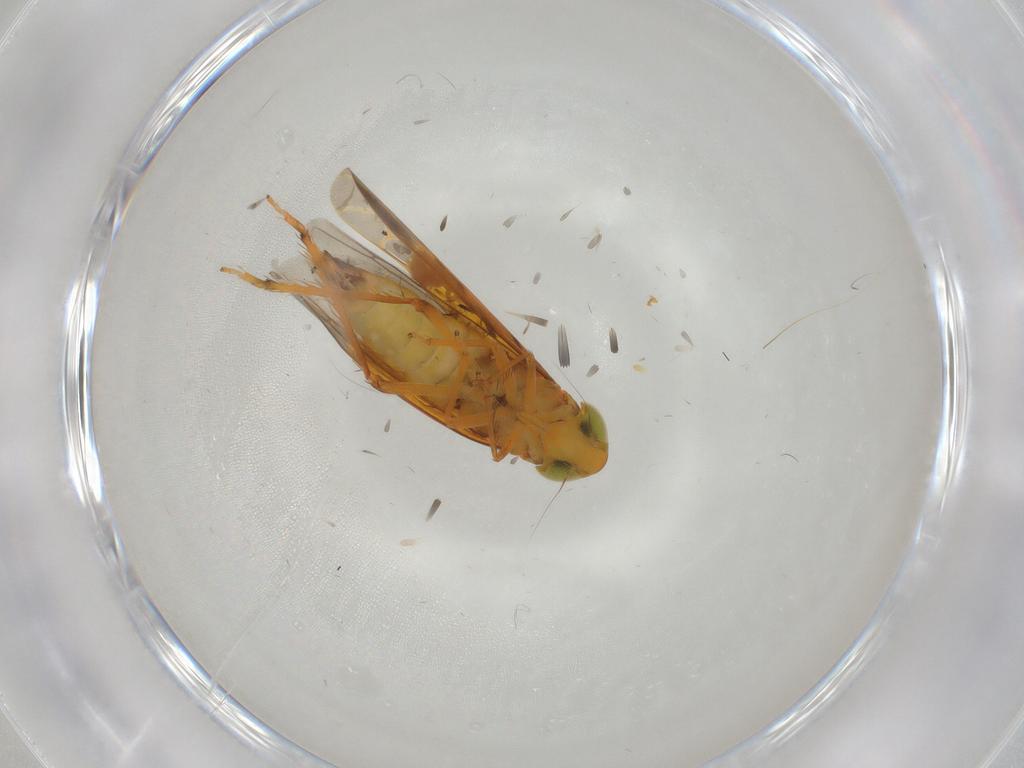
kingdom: Animalia
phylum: Arthropoda
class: Insecta
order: Hemiptera
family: Cicadellidae
